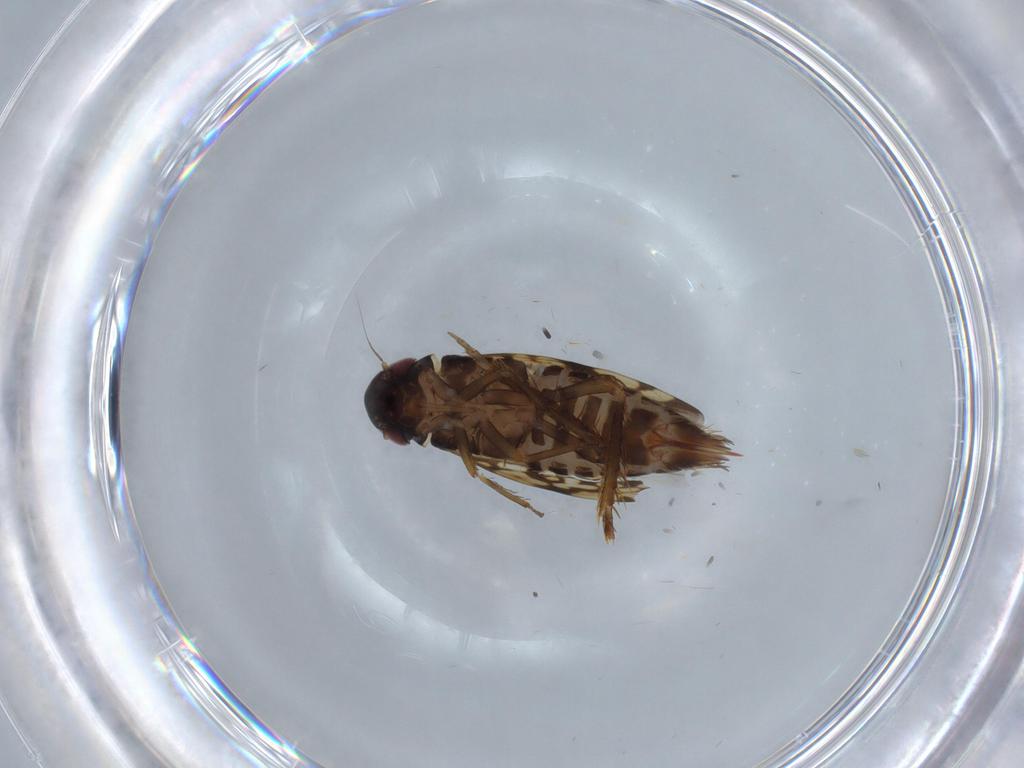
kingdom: Animalia
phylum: Arthropoda
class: Insecta
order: Hemiptera
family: Cicadellidae
